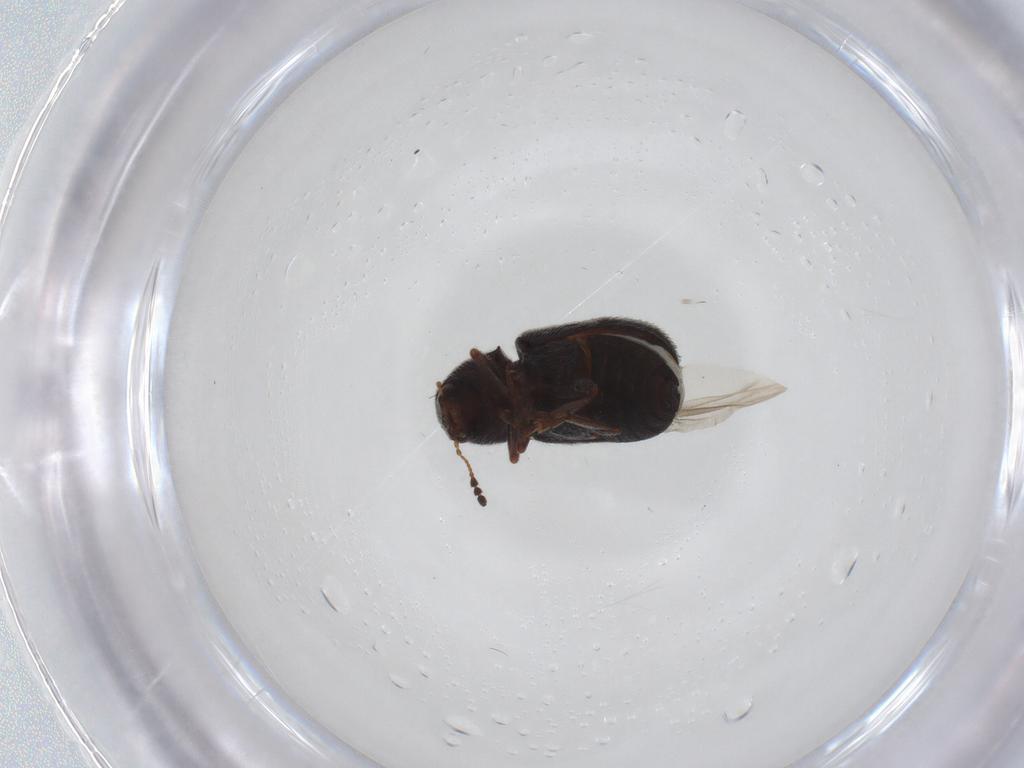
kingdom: Animalia
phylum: Arthropoda
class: Insecta
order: Coleoptera
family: Anthribidae
